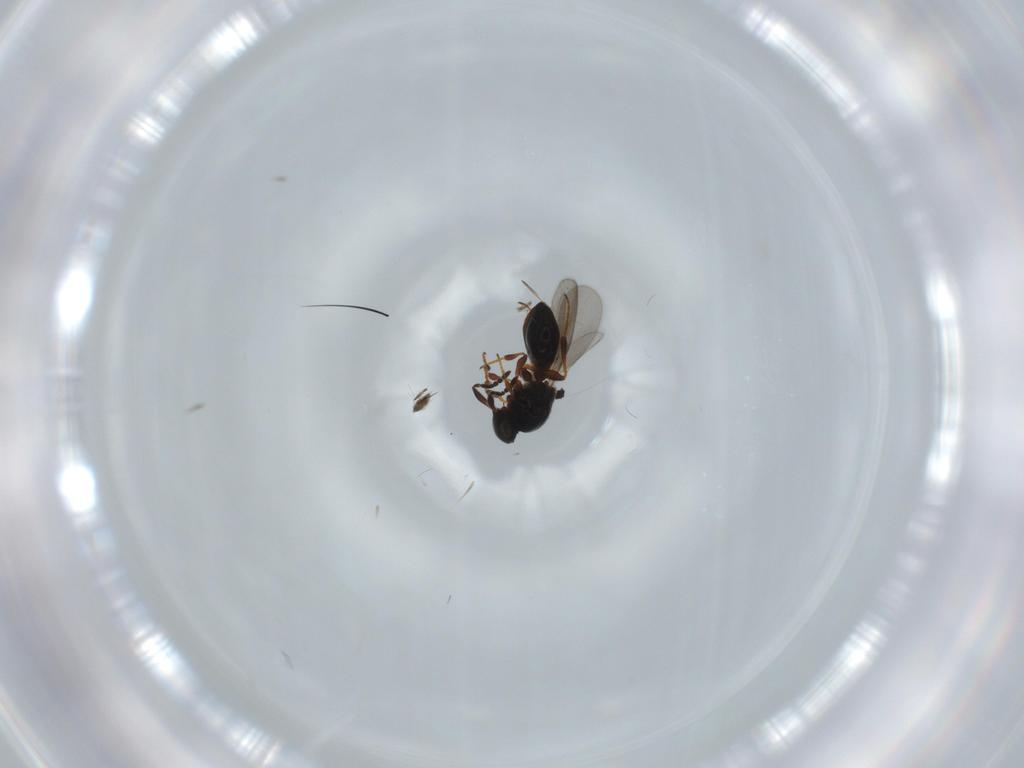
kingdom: Animalia
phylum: Arthropoda
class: Insecta
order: Hymenoptera
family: Platygastridae
